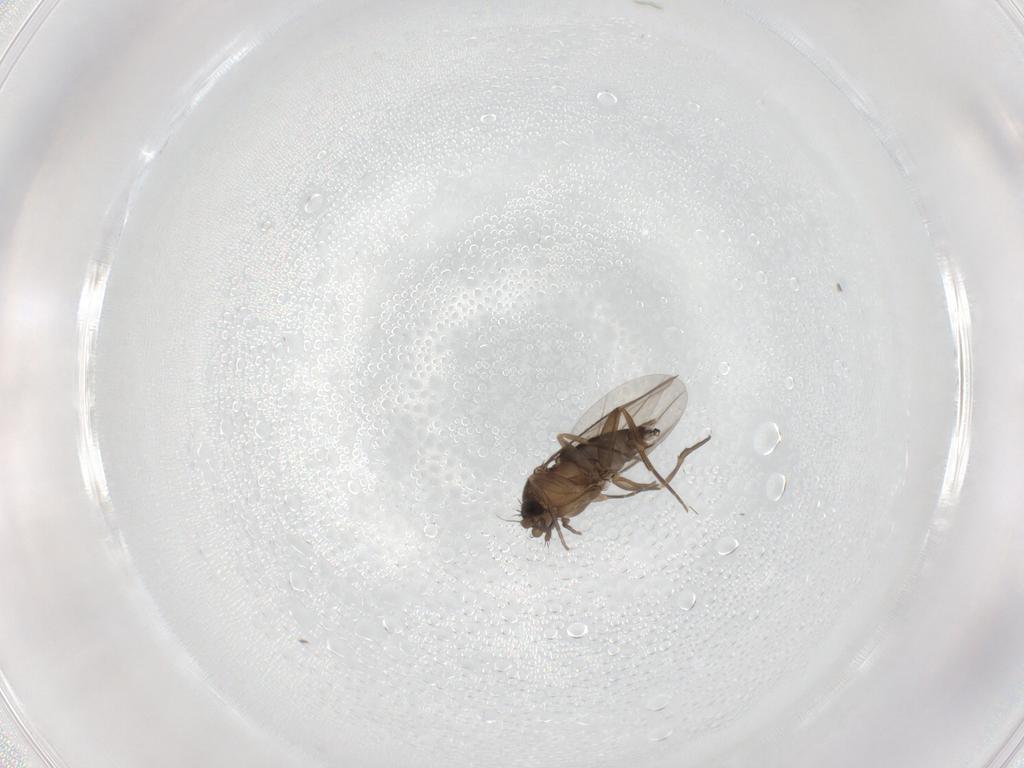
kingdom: Animalia
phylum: Arthropoda
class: Insecta
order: Diptera
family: Phoridae
